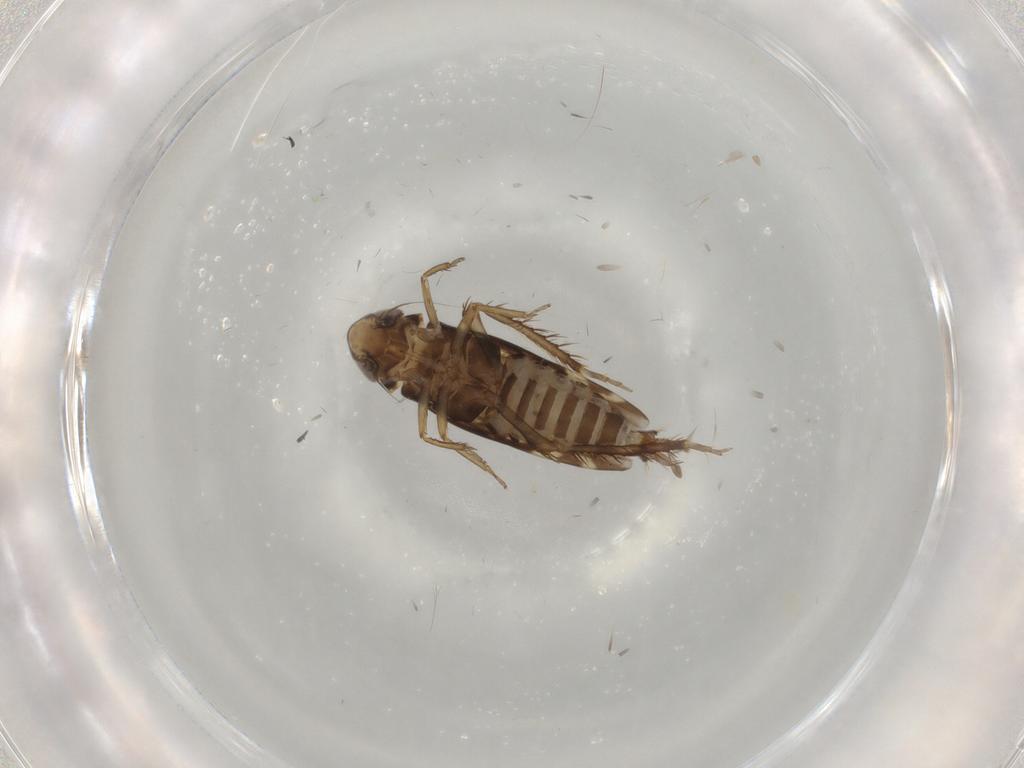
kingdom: Animalia
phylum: Arthropoda
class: Insecta
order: Hemiptera
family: Cicadellidae
